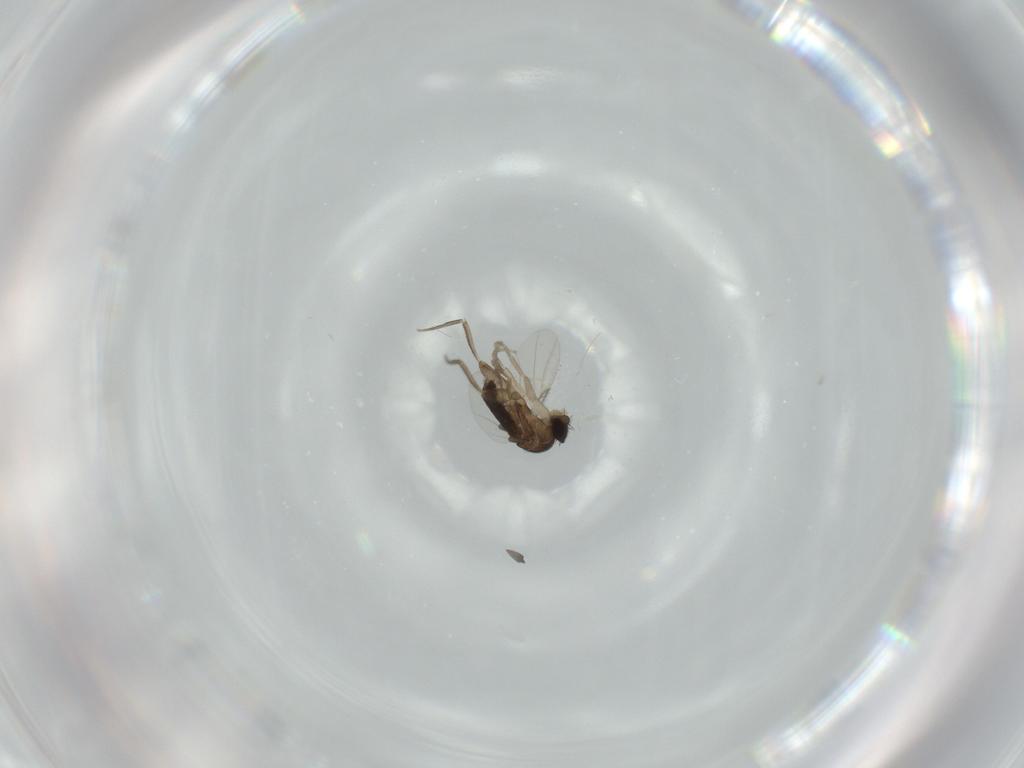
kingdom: Animalia
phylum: Arthropoda
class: Insecta
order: Diptera
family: Phoridae
